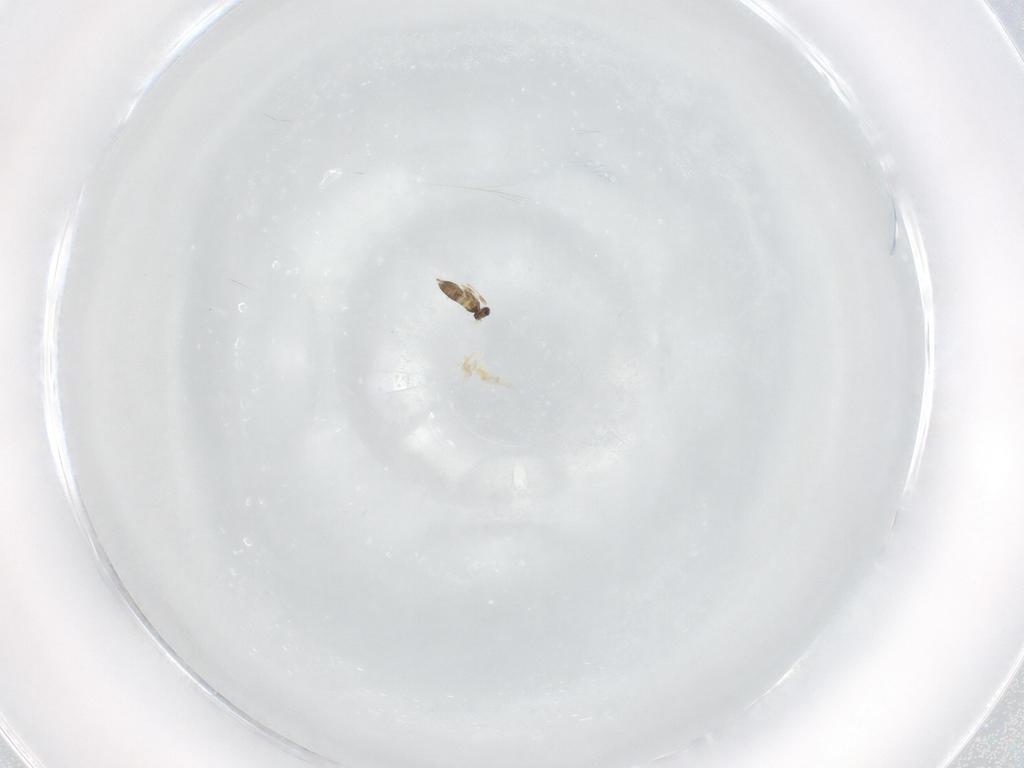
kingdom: Animalia
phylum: Arthropoda
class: Insecta
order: Hymenoptera
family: Mymaridae
